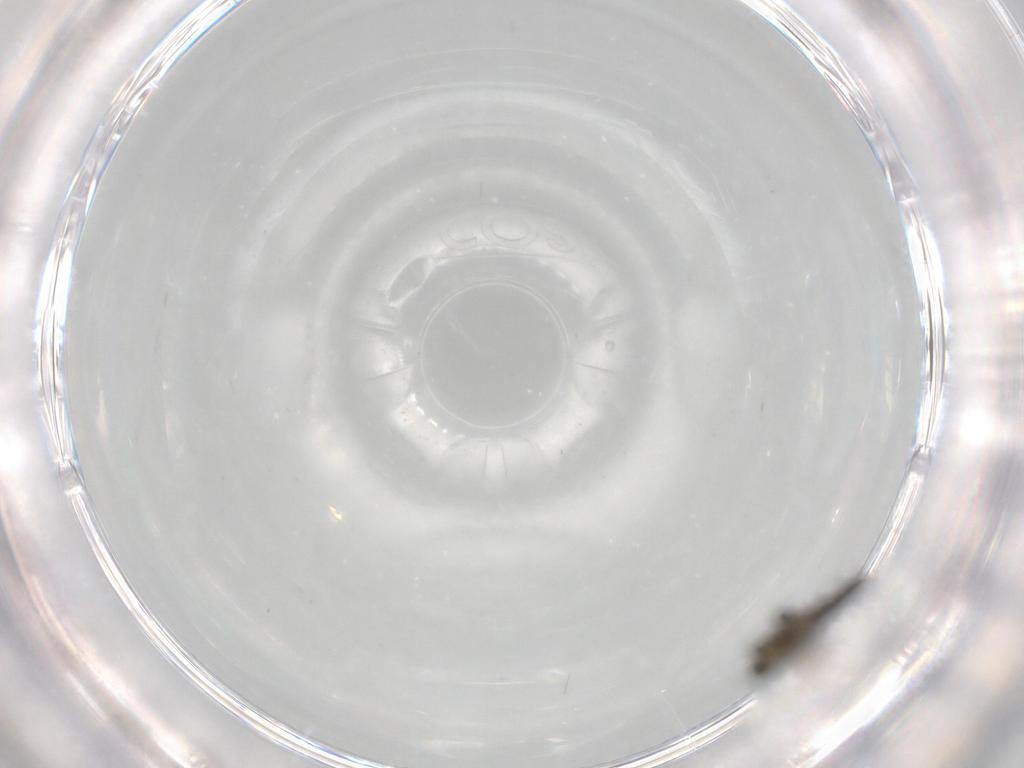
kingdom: Animalia
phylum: Arthropoda
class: Insecta
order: Diptera
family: Chironomidae
